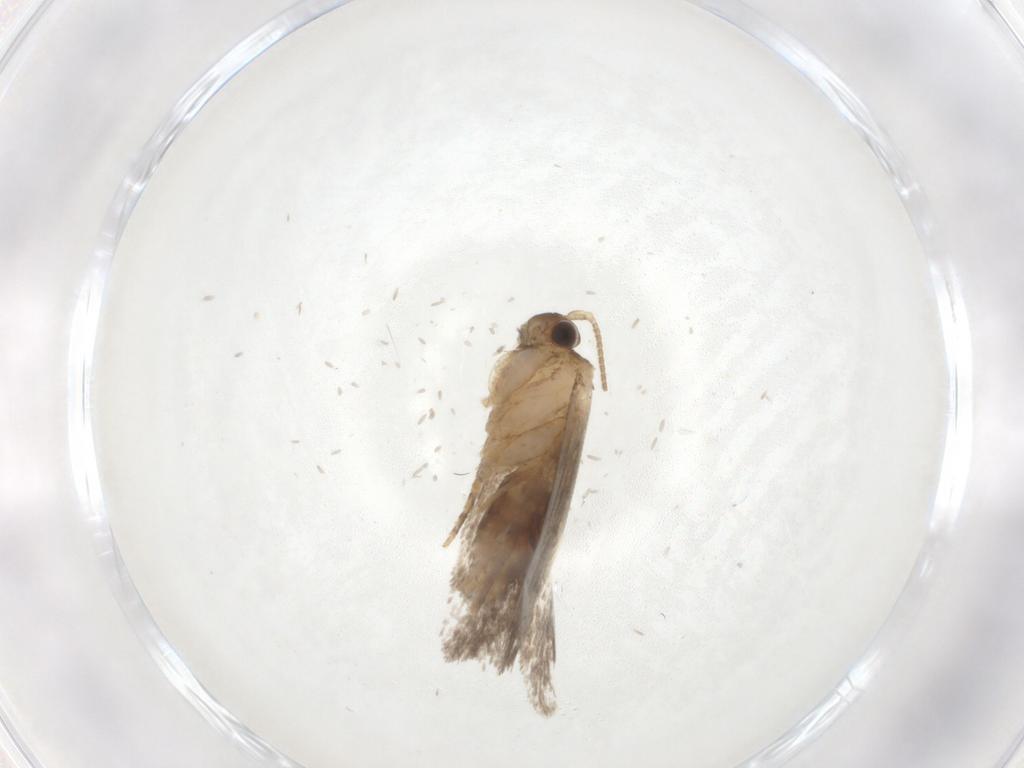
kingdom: Animalia
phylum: Arthropoda
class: Insecta
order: Lepidoptera
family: Dryadaulidae
